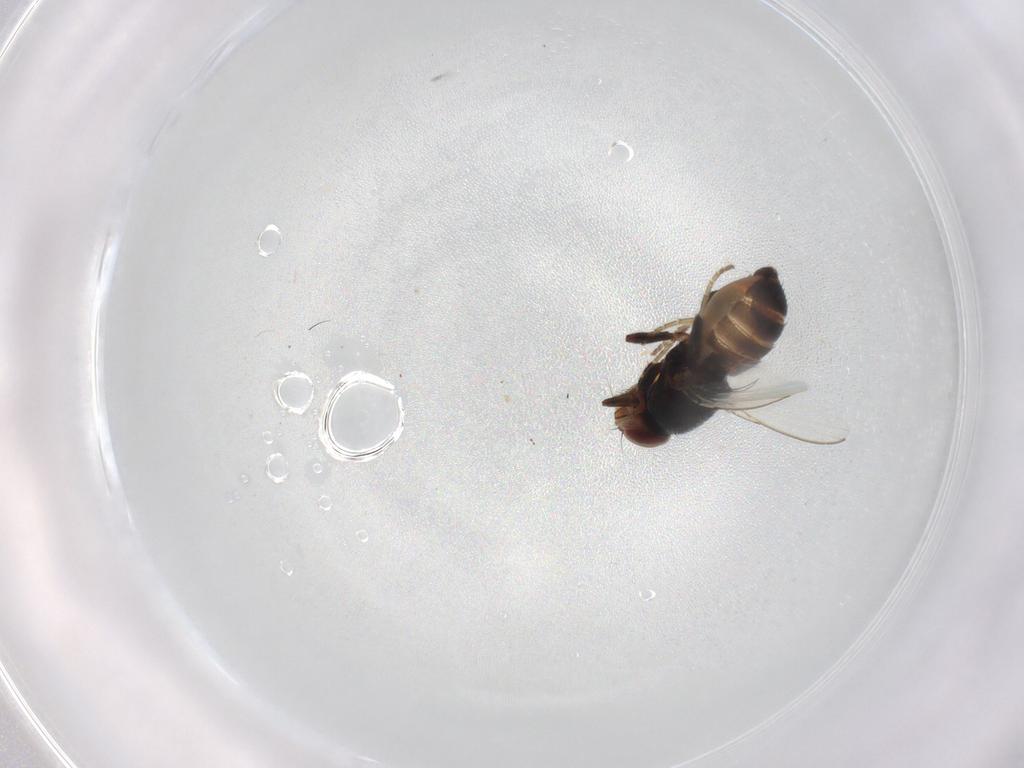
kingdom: Animalia
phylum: Arthropoda
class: Insecta
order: Diptera
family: Milichiidae
